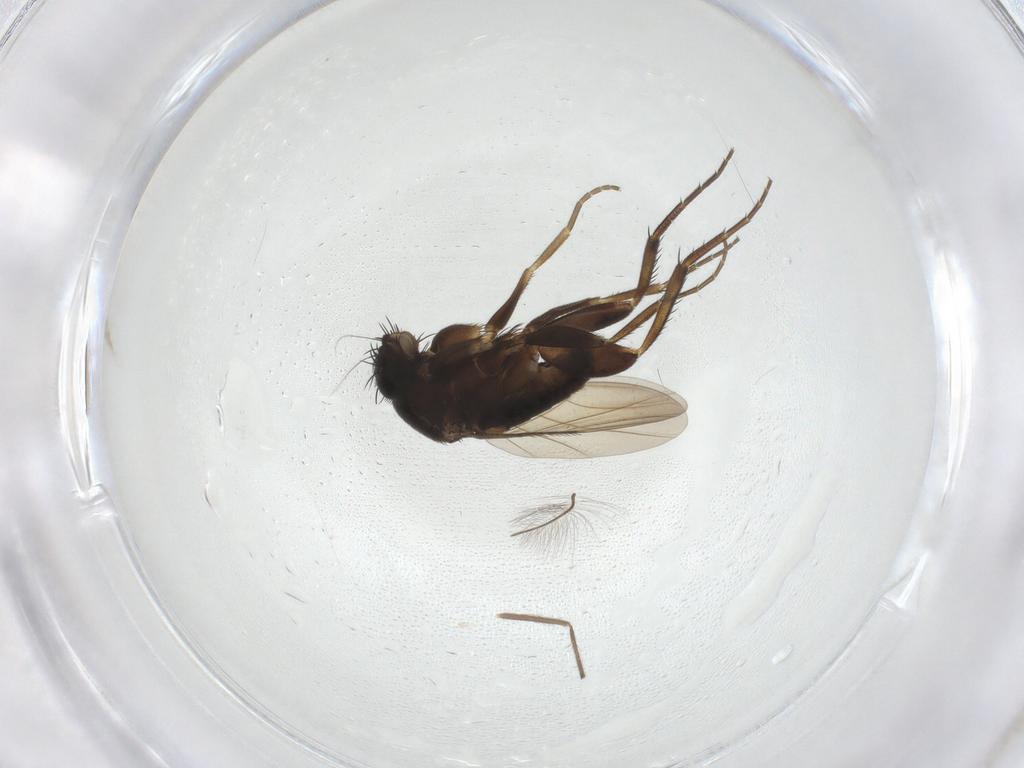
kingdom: Animalia
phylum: Arthropoda
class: Insecta
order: Diptera
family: Phoridae
